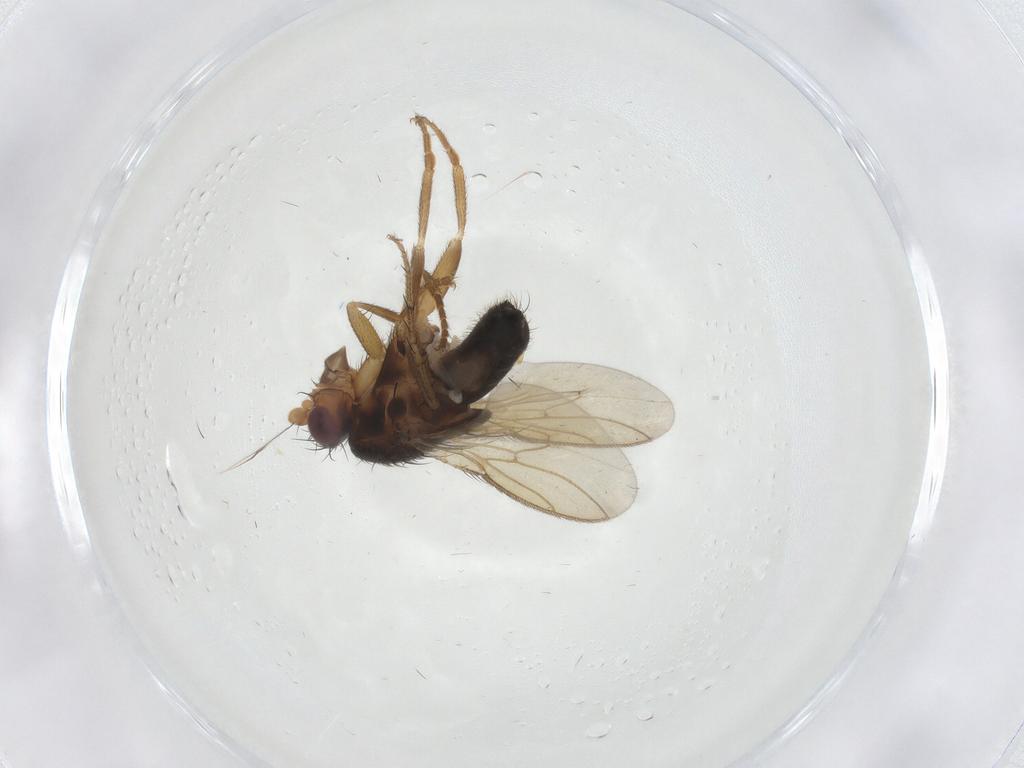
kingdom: Animalia
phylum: Arthropoda
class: Insecta
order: Diptera
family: Sphaeroceridae
